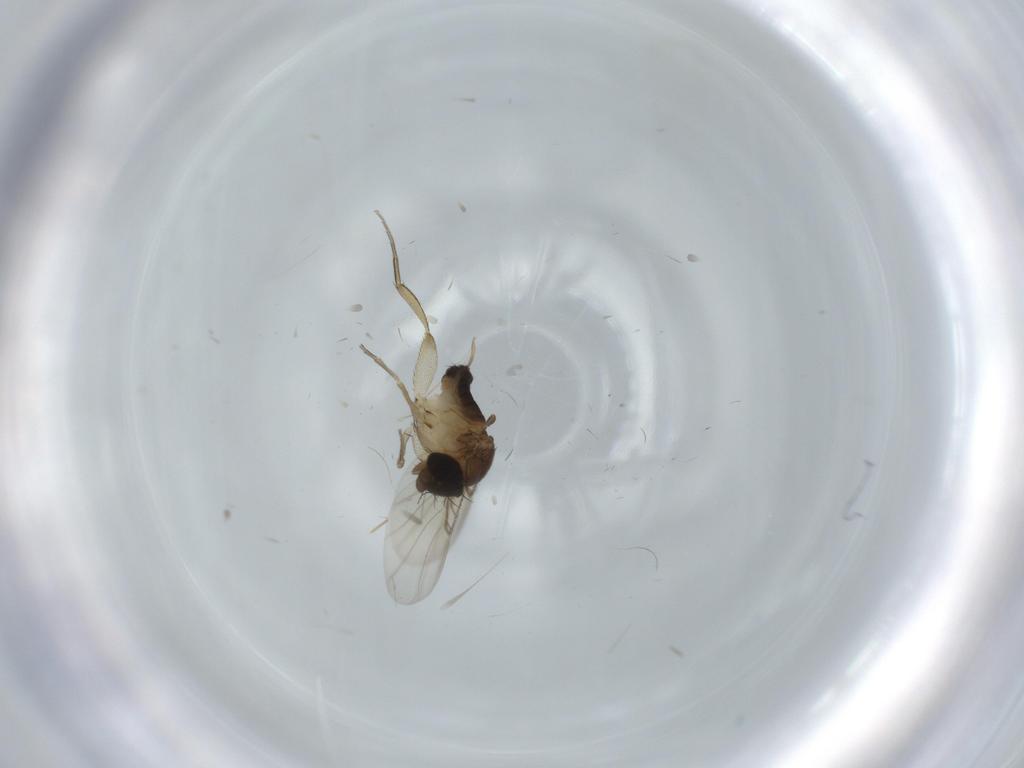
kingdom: Animalia
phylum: Arthropoda
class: Insecta
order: Diptera
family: Phoridae
